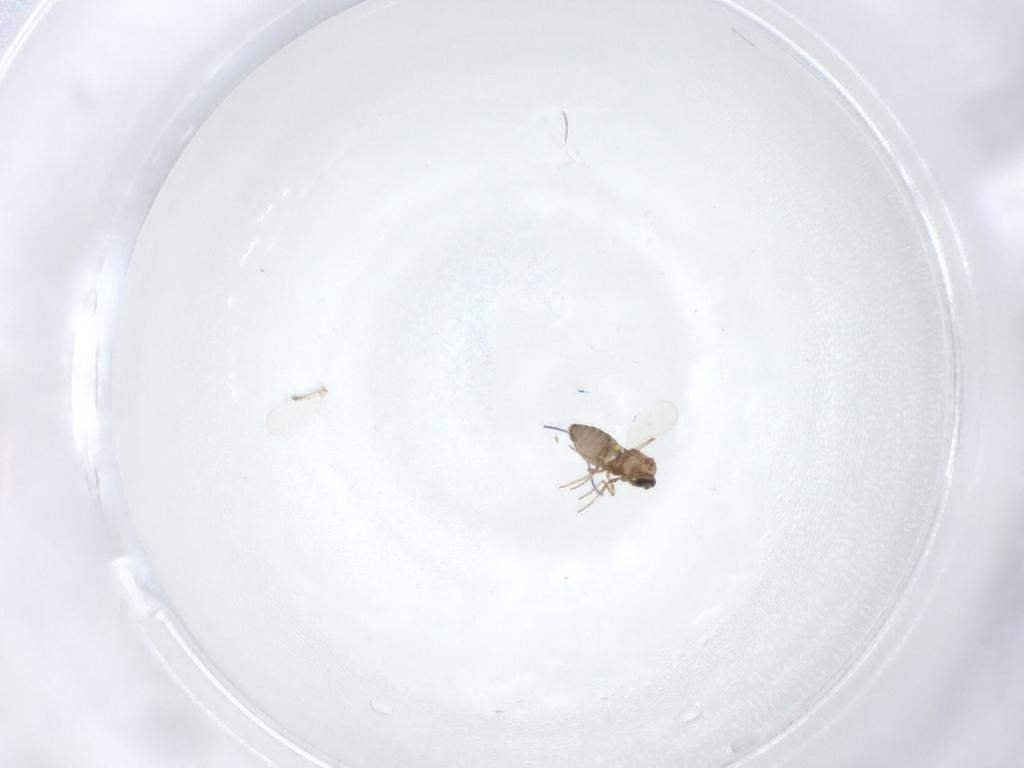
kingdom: Animalia
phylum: Arthropoda
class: Insecta
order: Diptera
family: Ceratopogonidae
